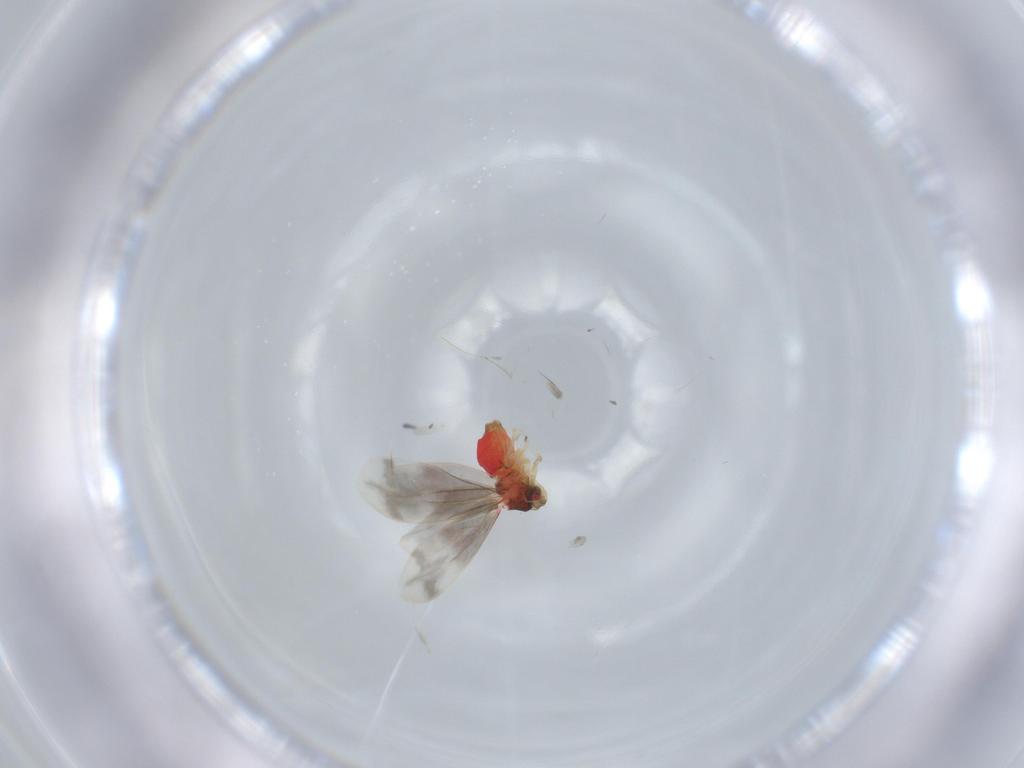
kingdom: Animalia
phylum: Arthropoda
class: Insecta
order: Hemiptera
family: Aleyrodidae
